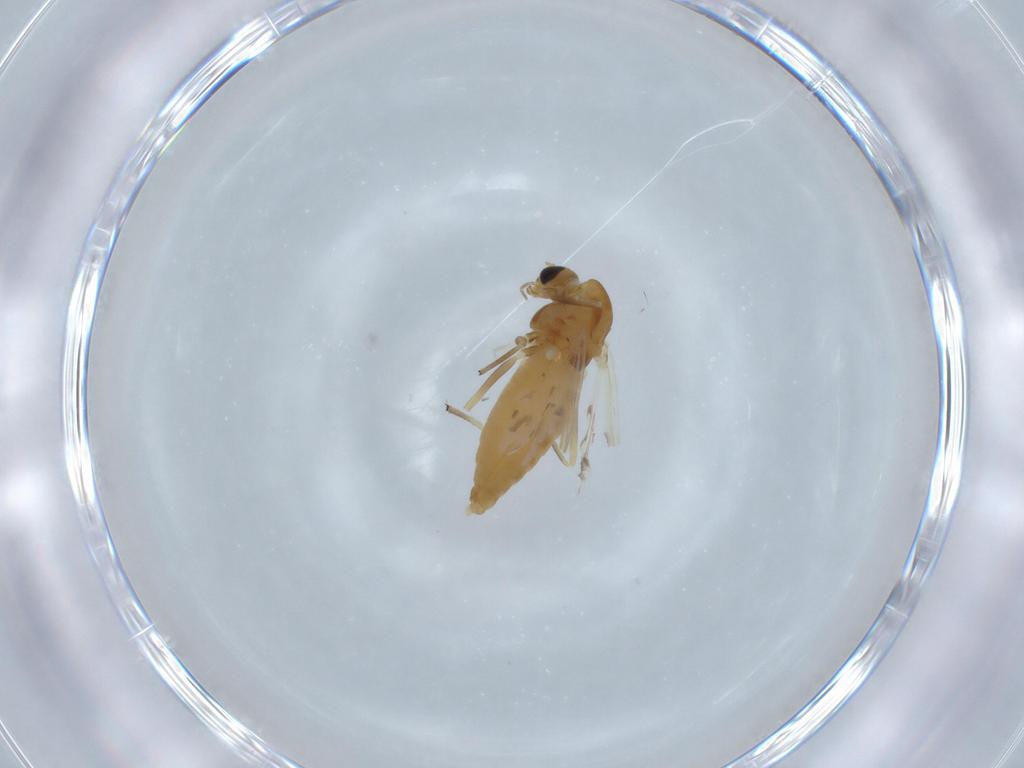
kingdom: Animalia
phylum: Arthropoda
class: Insecta
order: Diptera
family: Chironomidae
